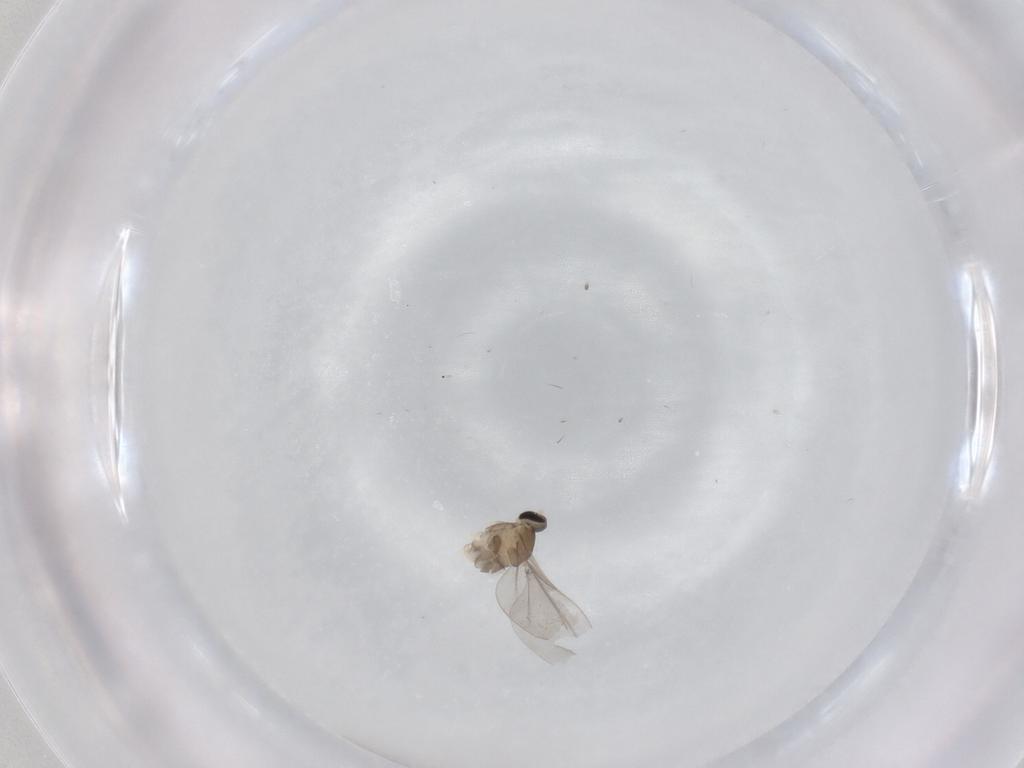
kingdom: Animalia
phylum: Arthropoda
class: Insecta
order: Diptera
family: Cecidomyiidae
